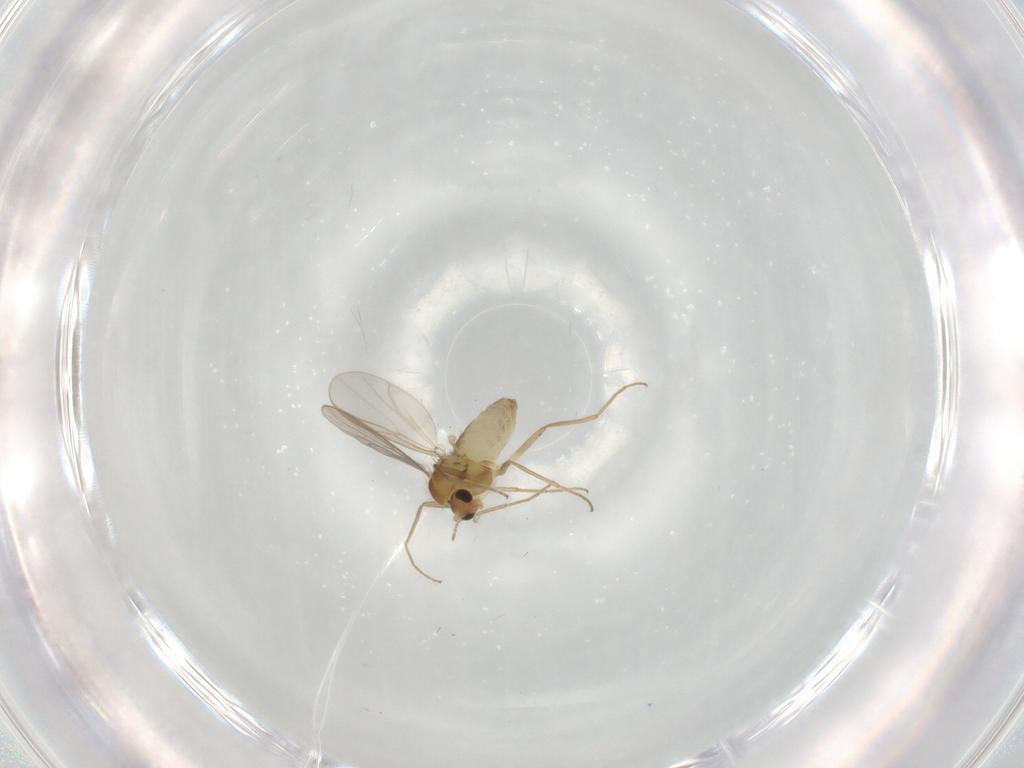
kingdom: Animalia
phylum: Arthropoda
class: Insecta
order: Diptera
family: Chironomidae
